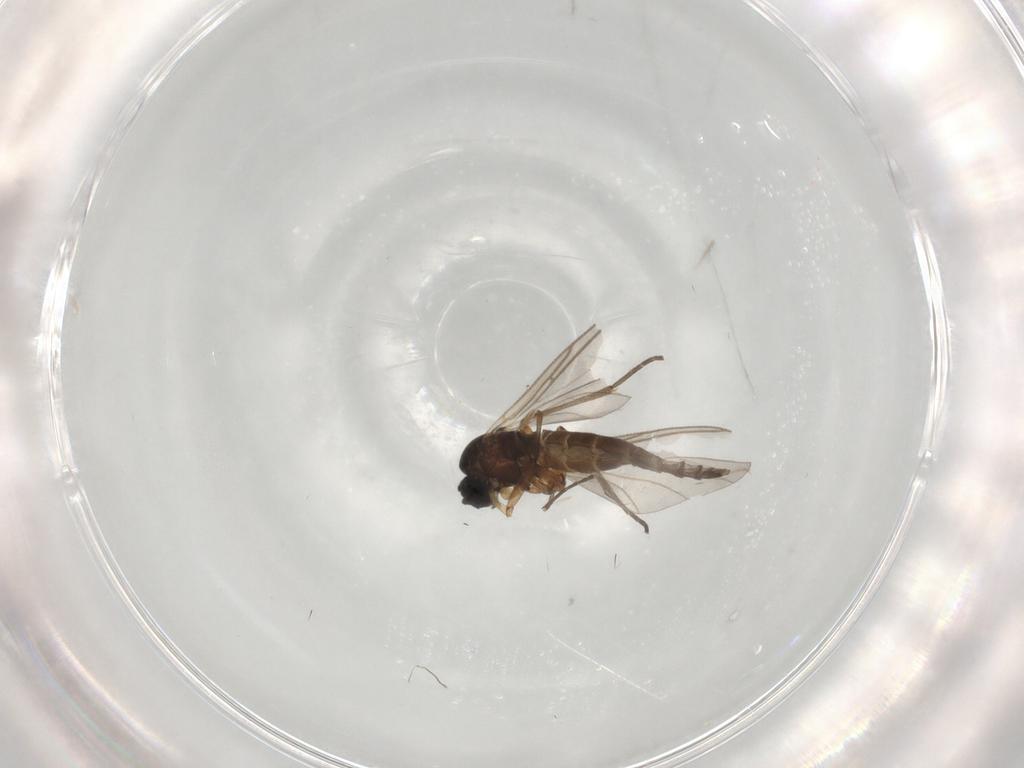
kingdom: Animalia
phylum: Arthropoda
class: Insecta
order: Diptera
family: Sciaridae
